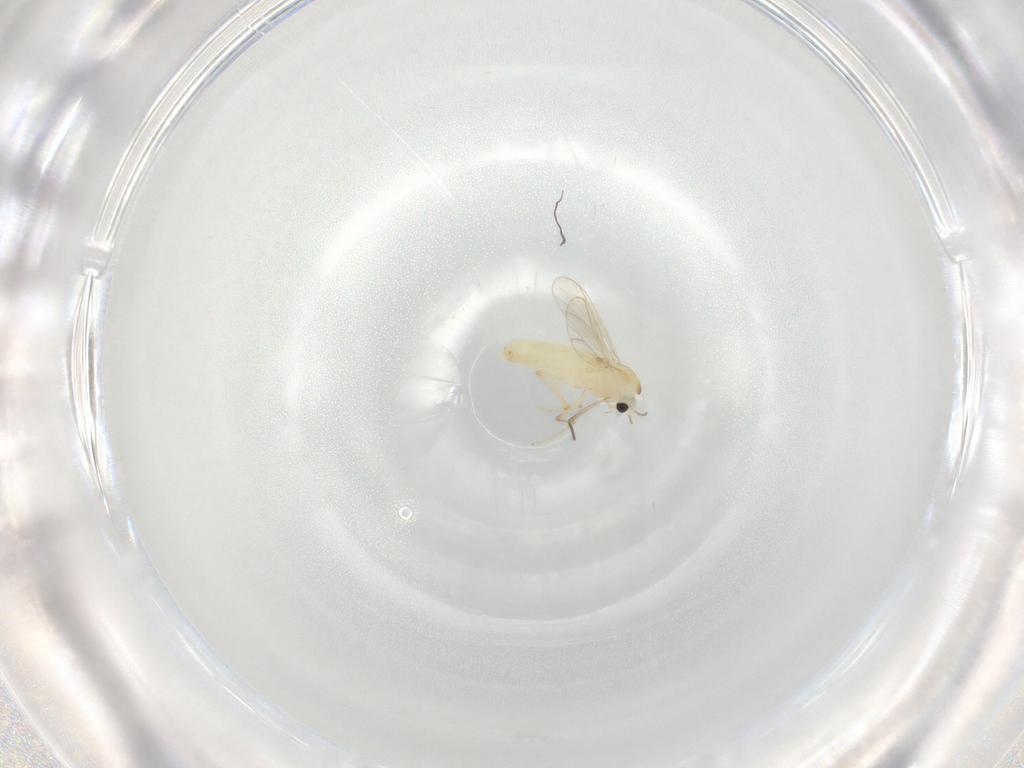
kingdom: Animalia
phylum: Arthropoda
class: Insecta
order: Diptera
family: Chironomidae
